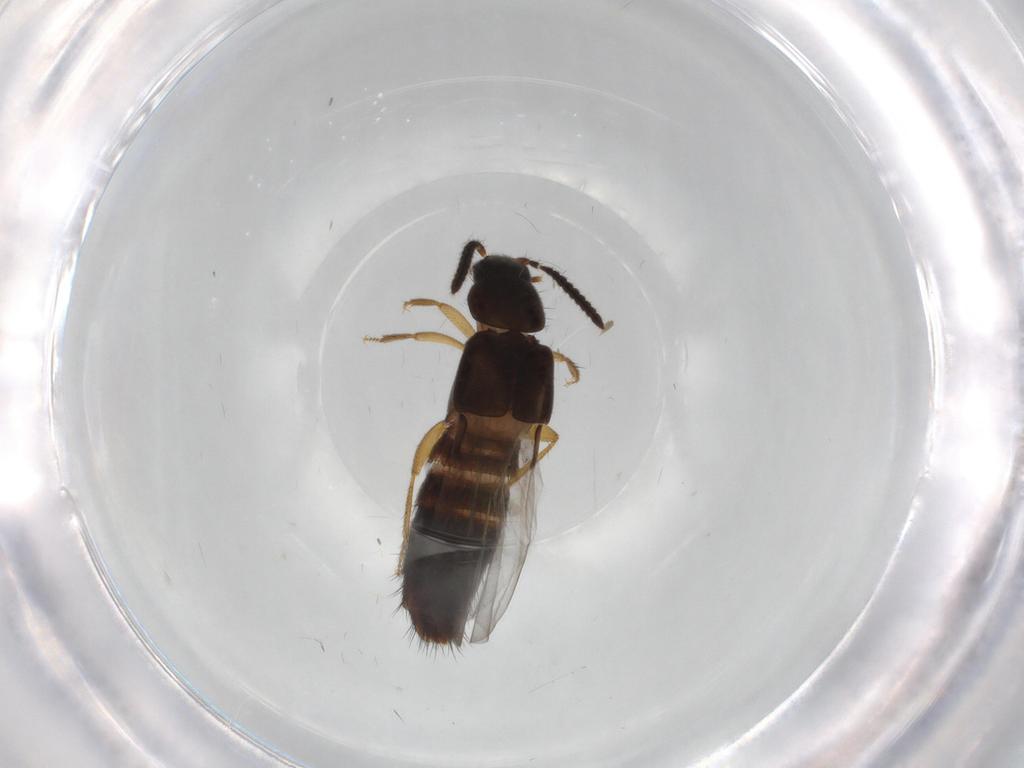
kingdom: Animalia
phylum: Arthropoda
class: Insecta
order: Coleoptera
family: Staphylinidae
